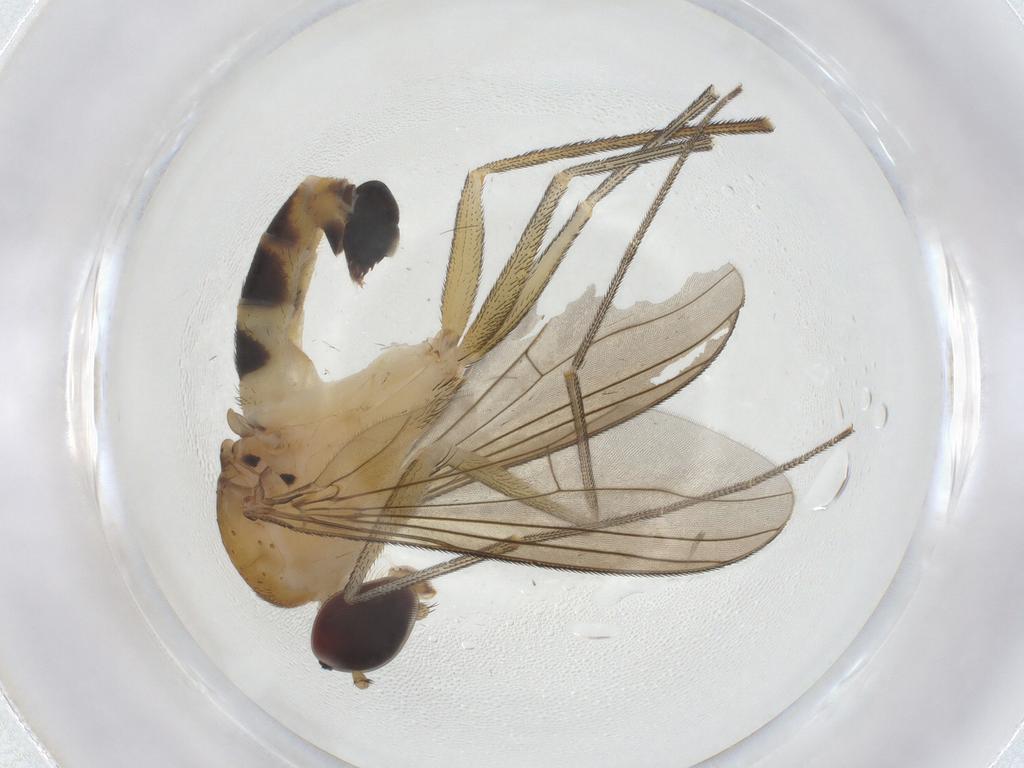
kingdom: Animalia
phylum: Arthropoda
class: Insecta
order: Diptera
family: Dolichopodidae
